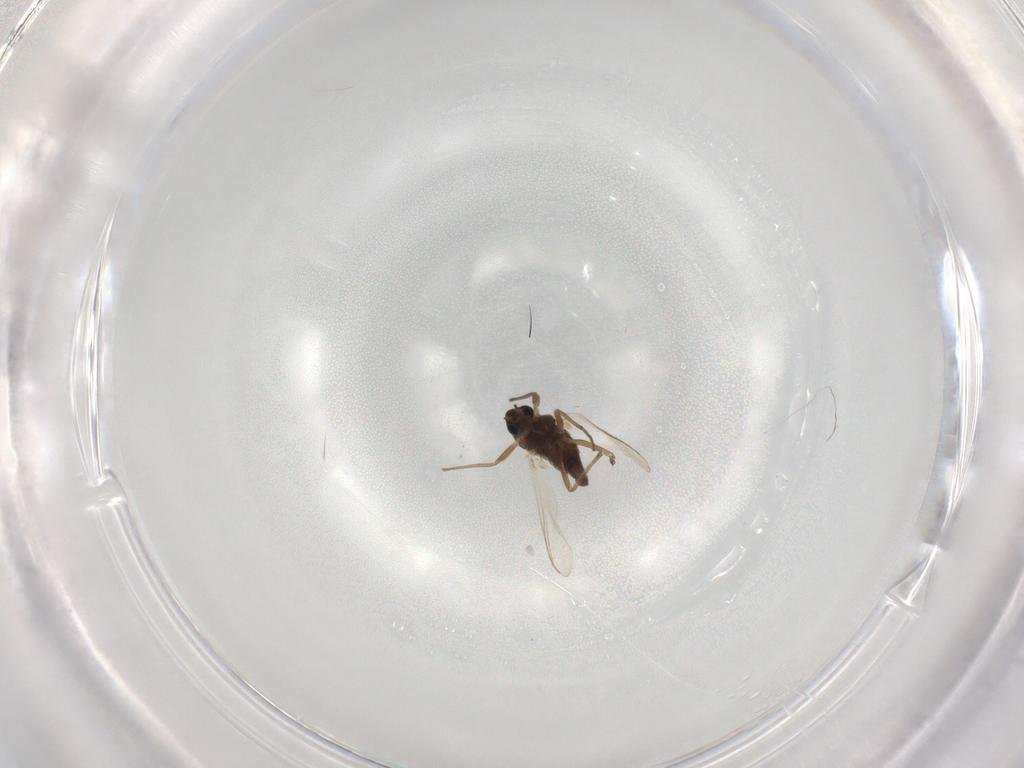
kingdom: Animalia
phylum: Arthropoda
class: Insecta
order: Diptera
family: Chironomidae
